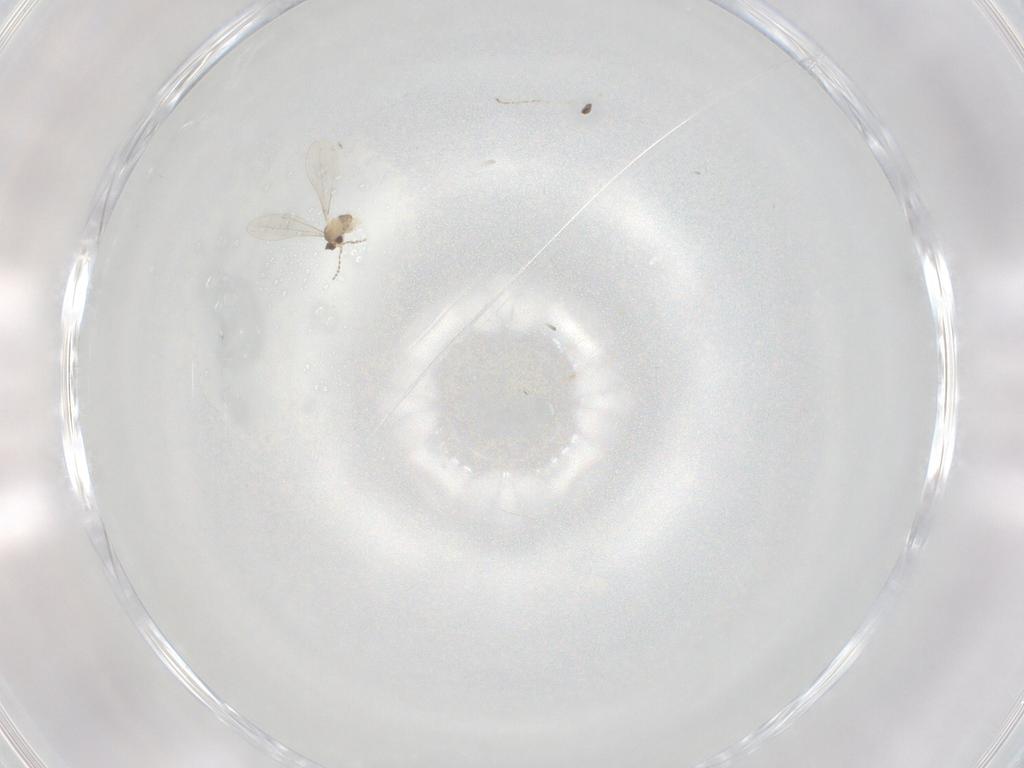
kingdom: Animalia
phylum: Arthropoda
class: Insecta
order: Diptera
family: Cecidomyiidae
